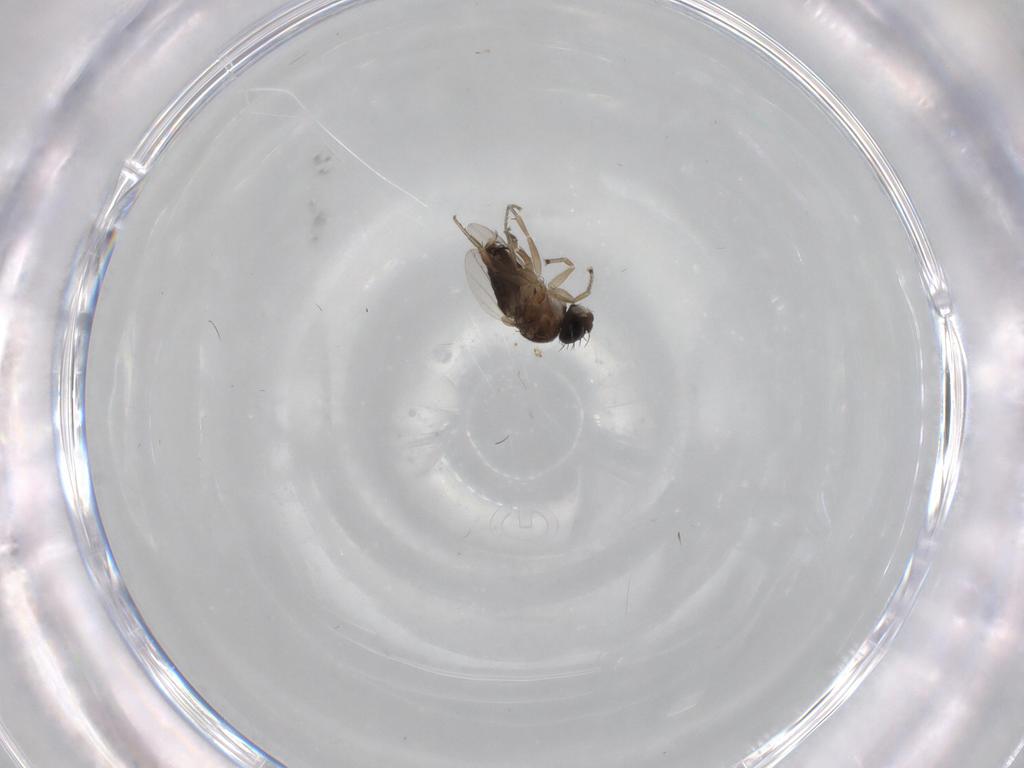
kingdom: Animalia
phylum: Arthropoda
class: Insecta
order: Diptera
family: Phoridae
